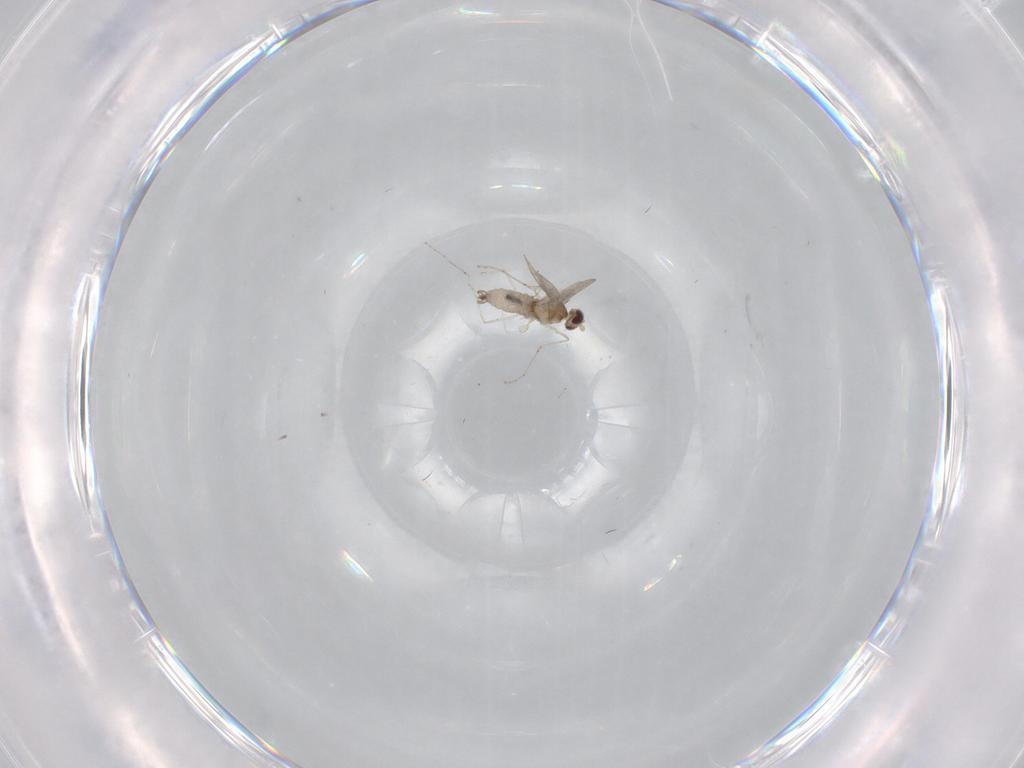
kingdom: Animalia
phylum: Arthropoda
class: Insecta
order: Diptera
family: Cecidomyiidae
